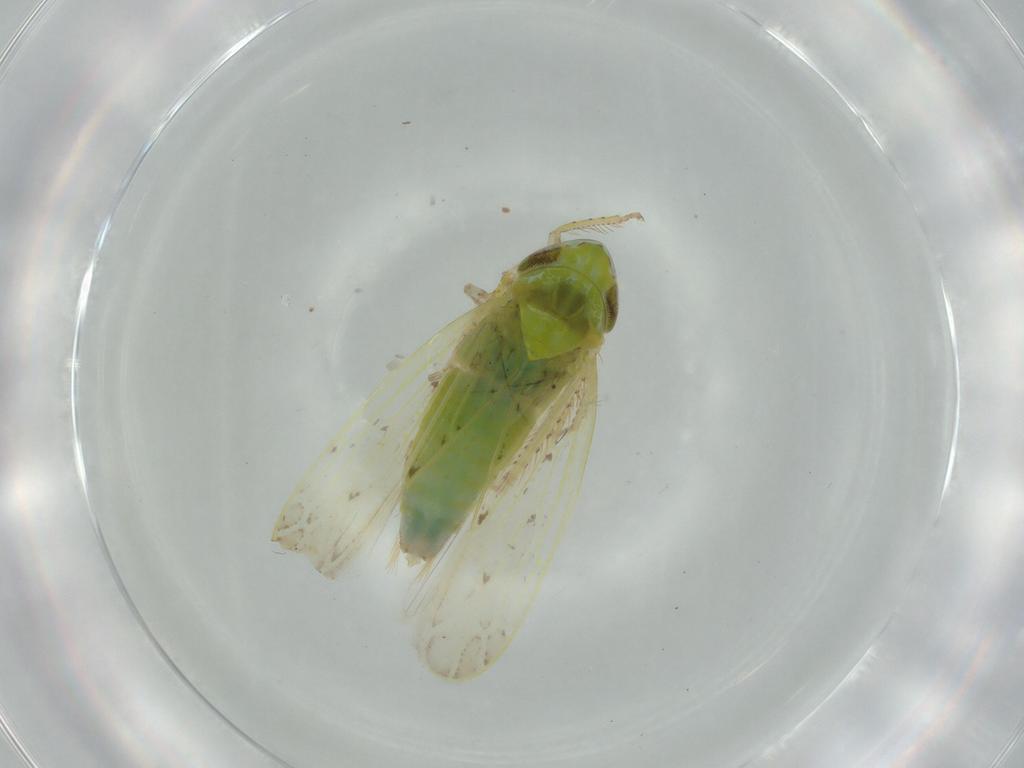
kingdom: Animalia
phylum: Arthropoda
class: Insecta
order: Hemiptera
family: Cicadellidae
